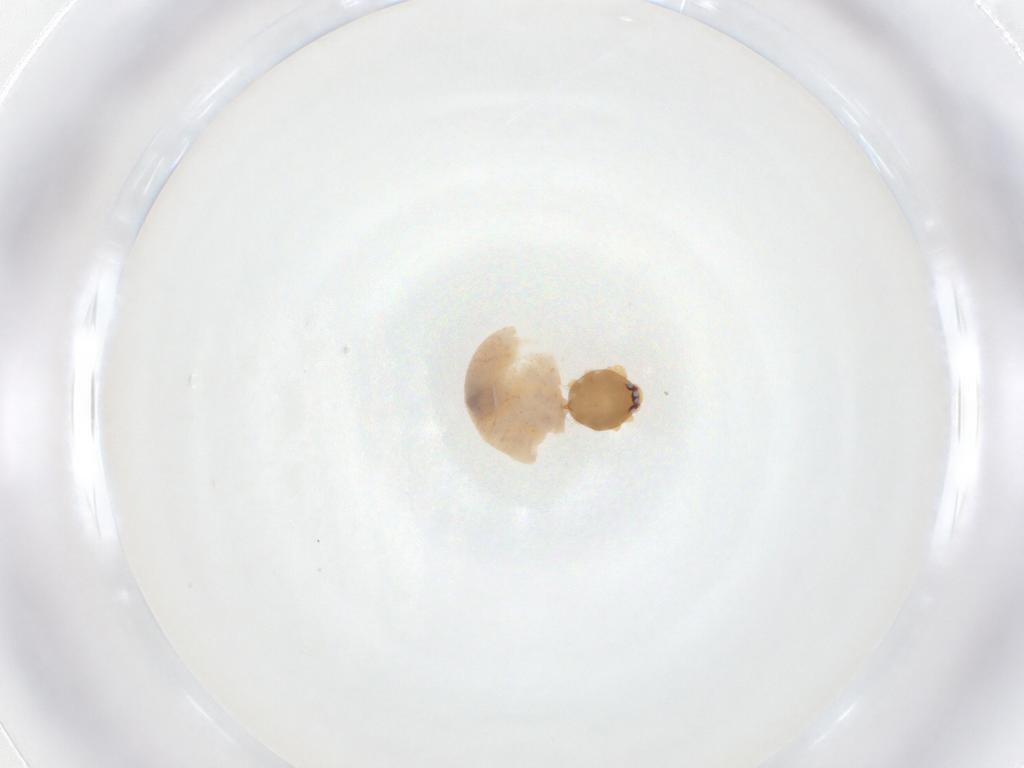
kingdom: Animalia
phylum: Arthropoda
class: Arachnida
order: Araneae
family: Oonopidae
